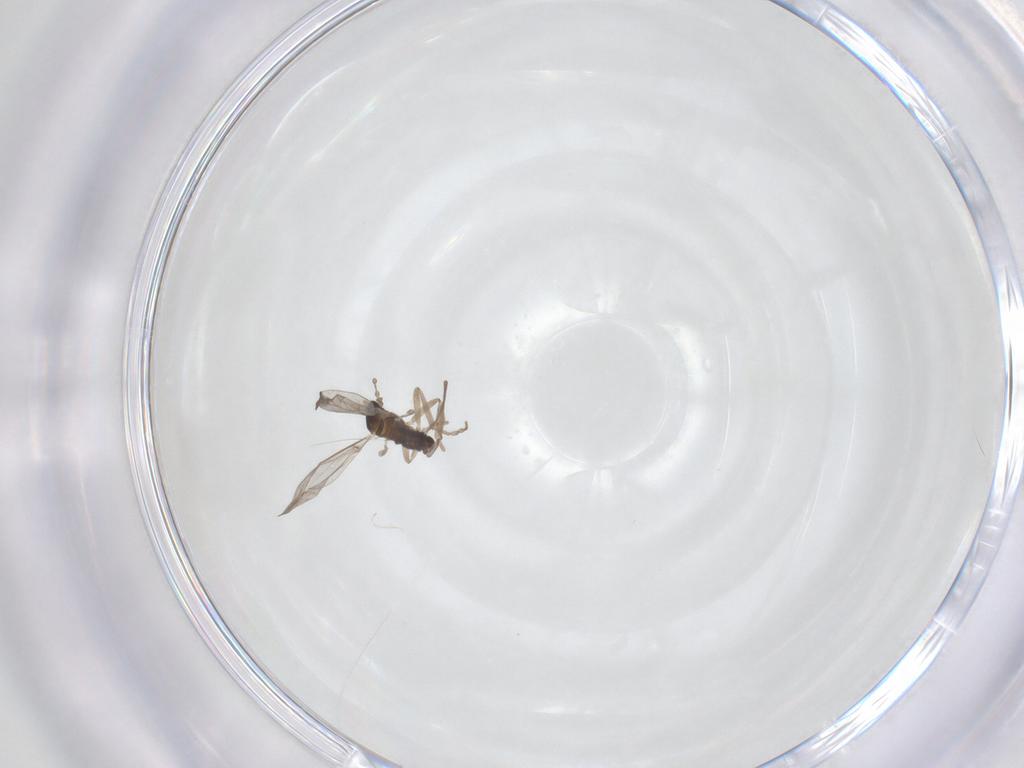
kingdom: Animalia
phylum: Arthropoda
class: Insecta
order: Diptera
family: Cecidomyiidae
